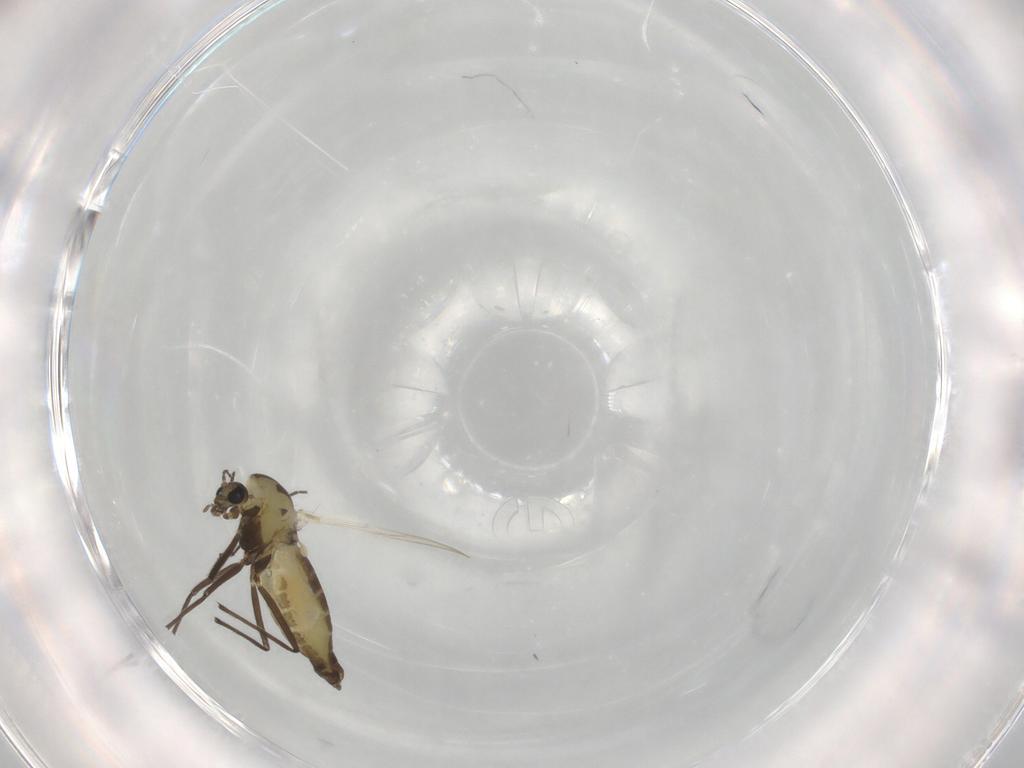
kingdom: Animalia
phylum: Arthropoda
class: Insecta
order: Diptera
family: Chironomidae
